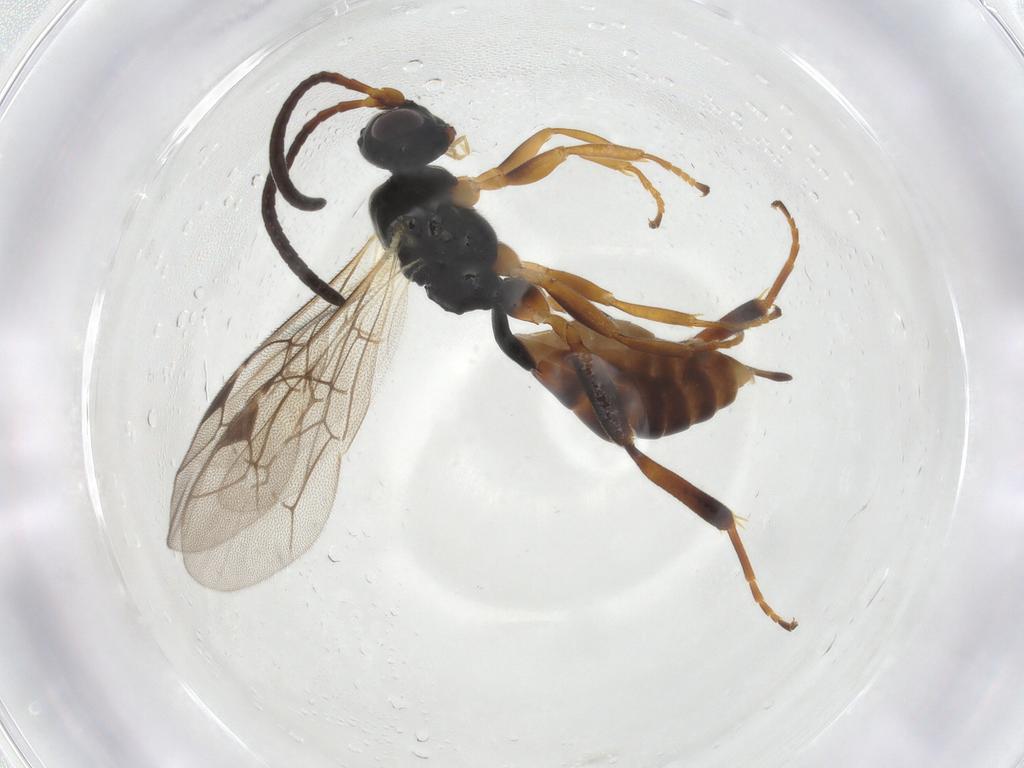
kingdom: Animalia
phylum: Arthropoda
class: Insecta
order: Hymenoptera
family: Ichneumonidae
